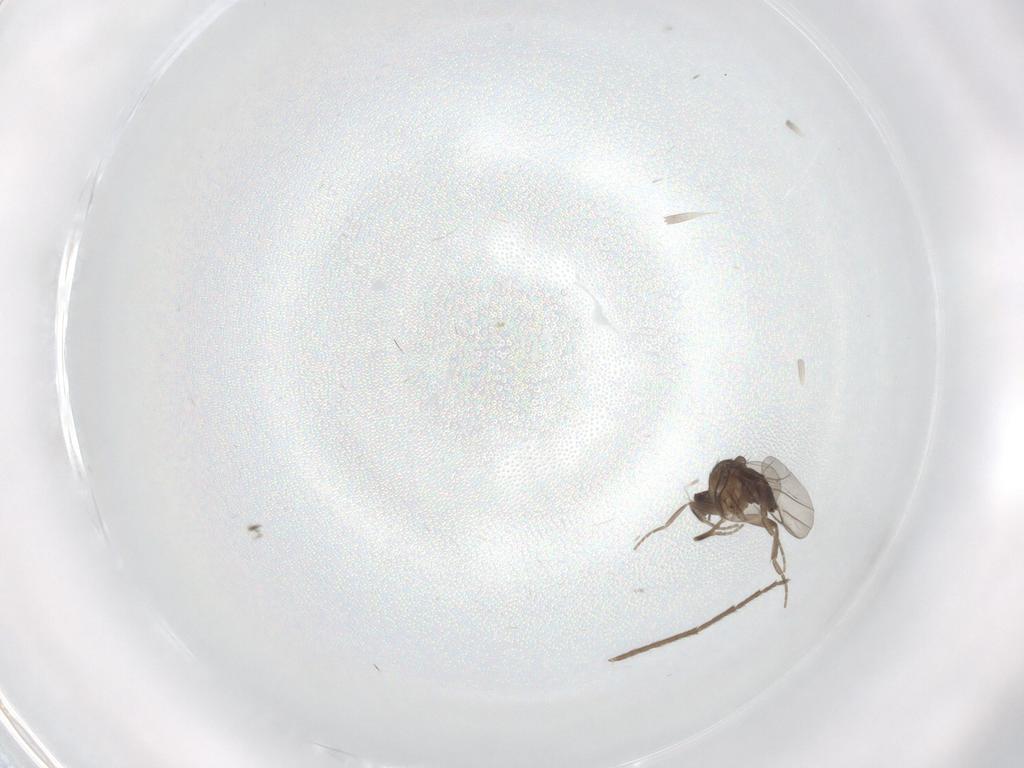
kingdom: Animalia
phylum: Arthropoda
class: Insecta
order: Diptera
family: Chironomidae
